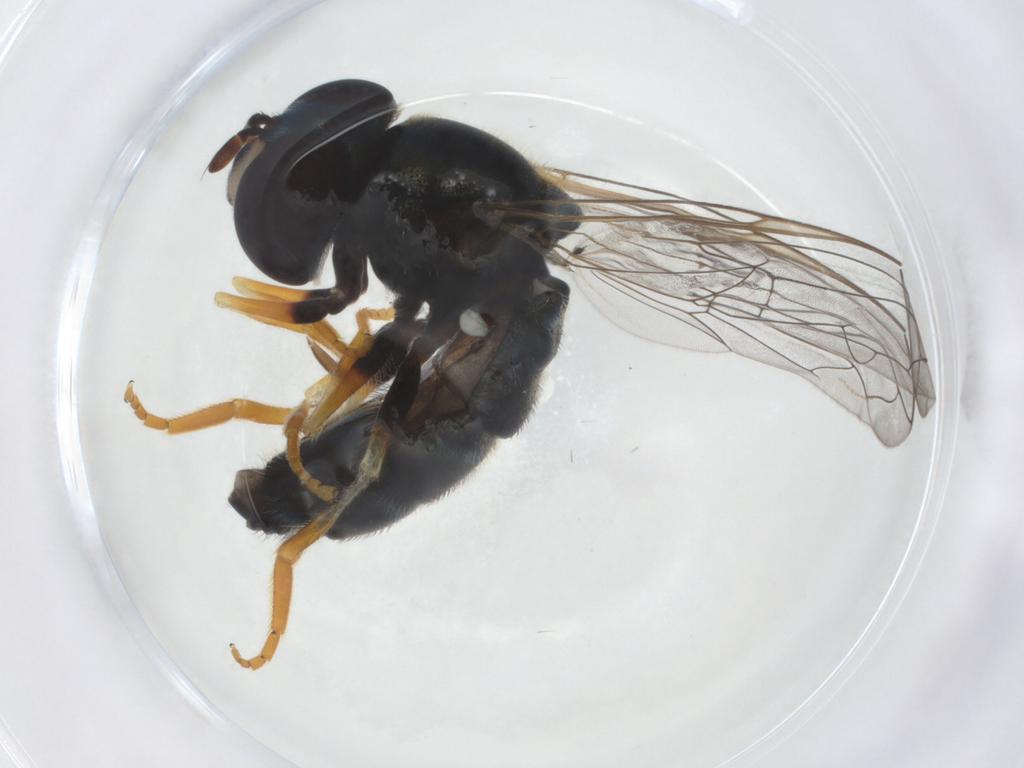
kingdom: Animalia
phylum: Arthropoda
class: Insecta
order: Diptera
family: Syrphidae
